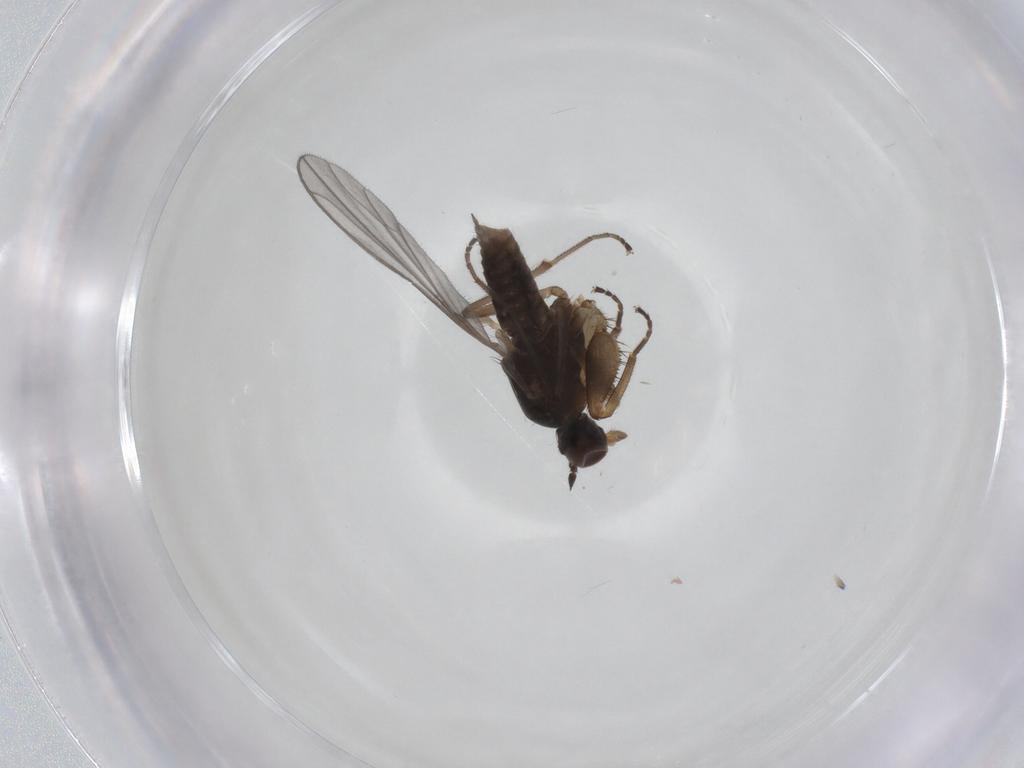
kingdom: Animalia
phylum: Arthropoda
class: Insecta
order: Diptera
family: Empididae
